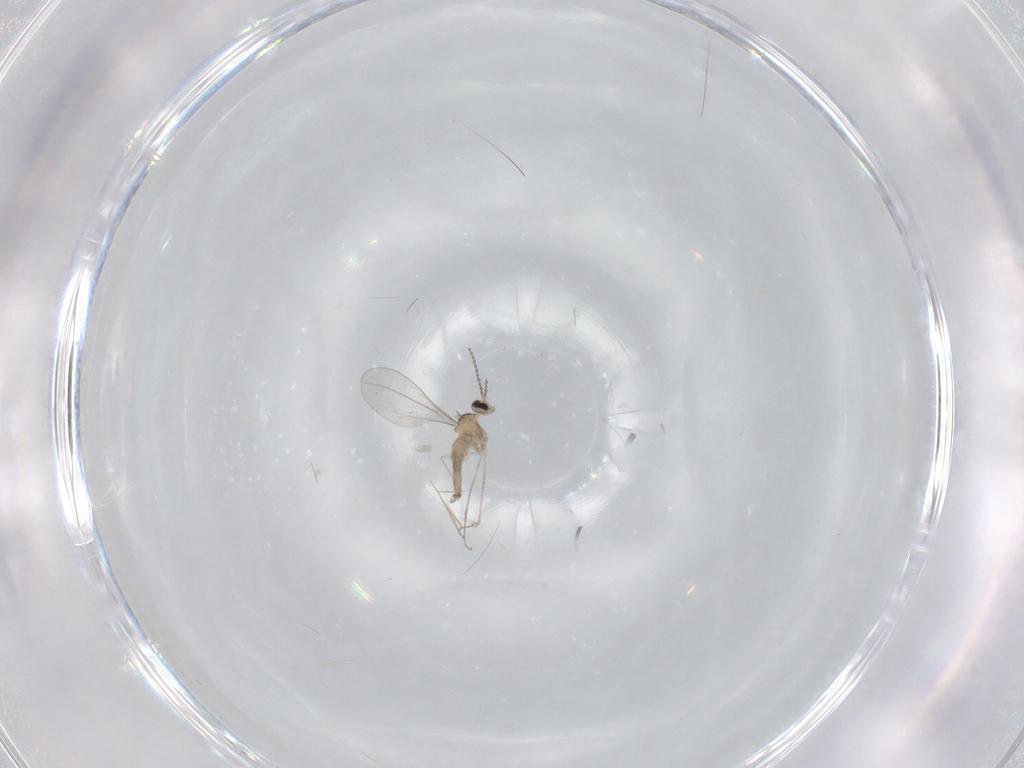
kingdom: Animalia
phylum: Arthropoda
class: Insecta
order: Diptera
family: Cecidomyiidae
